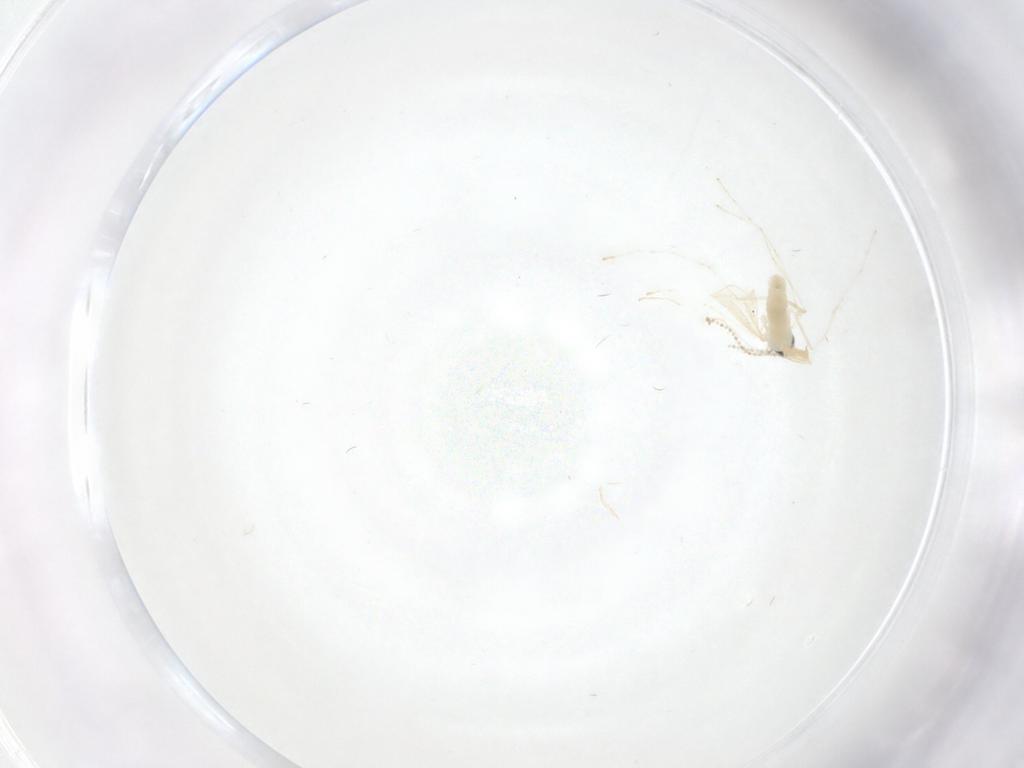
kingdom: Animalia
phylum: Arthropoda
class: Insecta
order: Diptera
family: Cecidomyiidae
